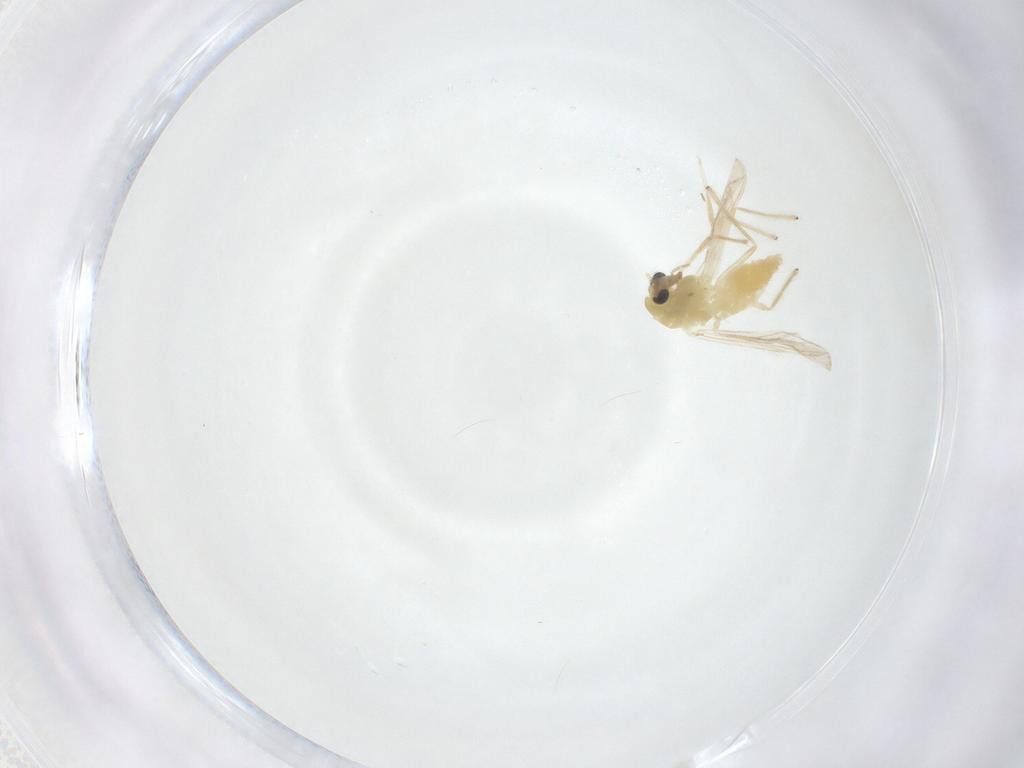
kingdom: Animalia
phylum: Arthropoda
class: Insecta
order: Diptera
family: Chironomidae
